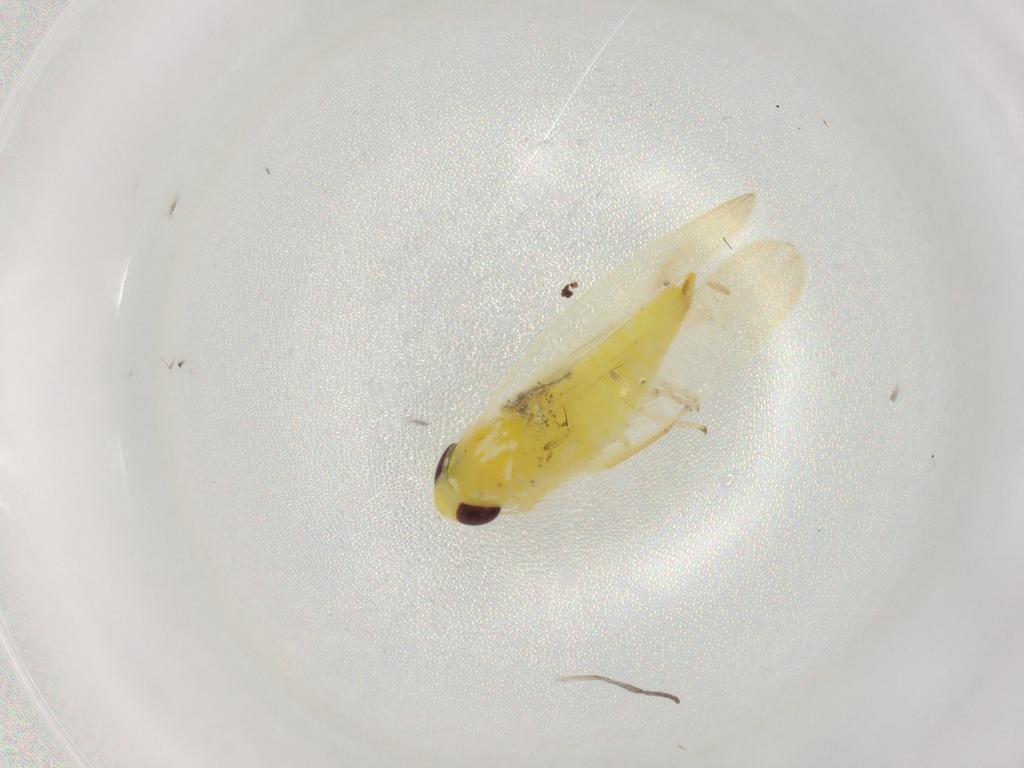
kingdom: Animalia
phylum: Arthropoda
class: Insecta
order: Hemiptera
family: Cicadellidae
